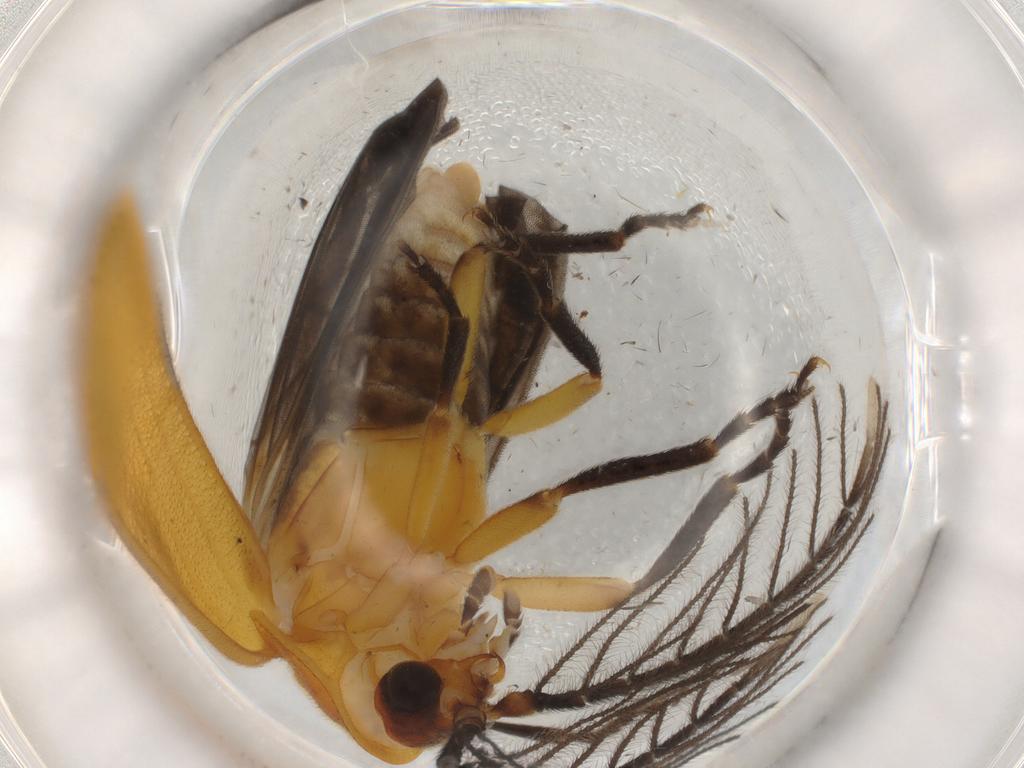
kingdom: Animalia
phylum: Arthropoda
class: Insecta
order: Coleoptera
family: Lampyridae
